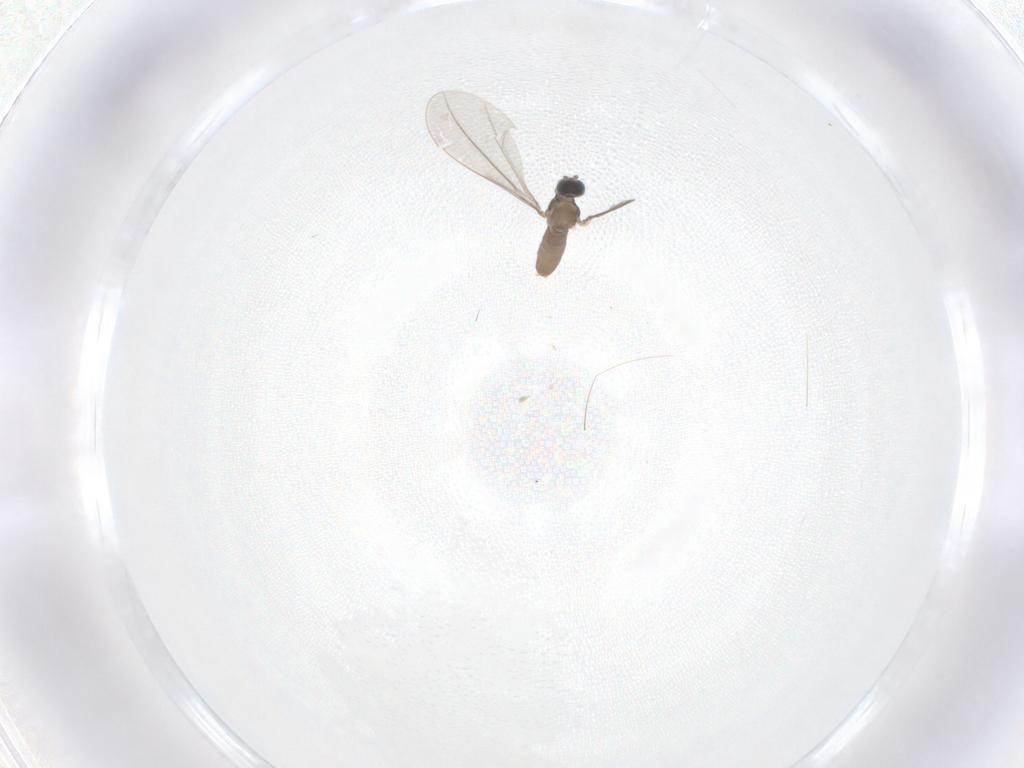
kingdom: Animalia
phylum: Arthropoda
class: Insecta
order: Diptera
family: Cecidomyiidae
